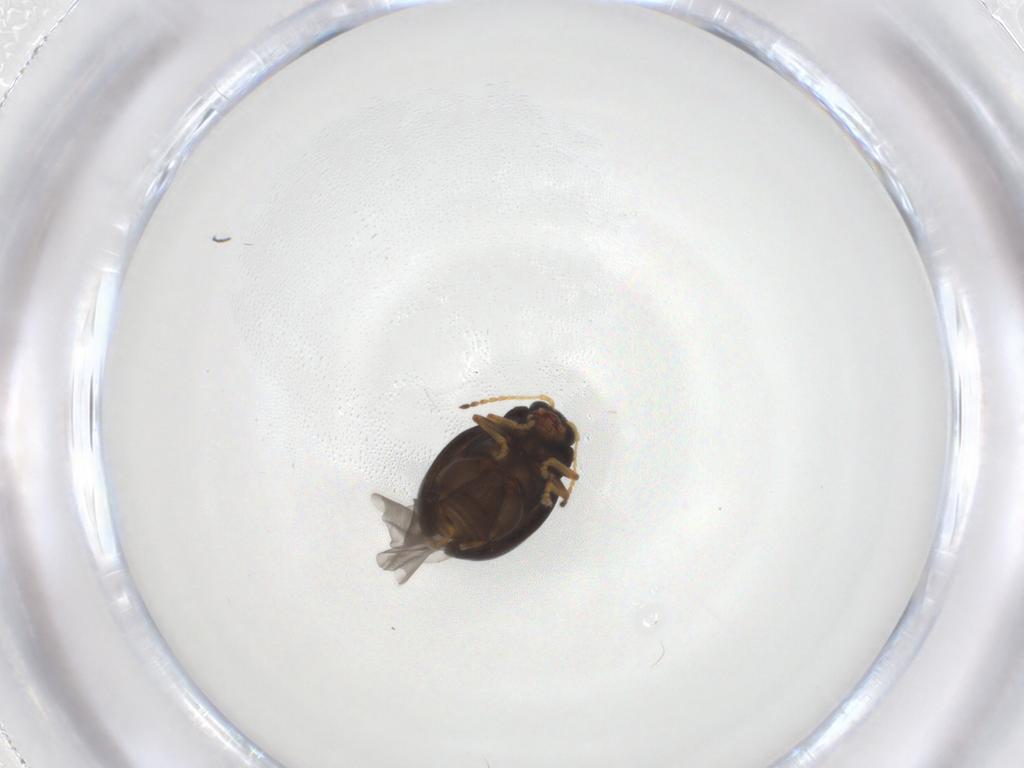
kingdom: Animalia
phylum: Arthropoda
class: Insecta
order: Coleoptera
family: Chrysomelidae
